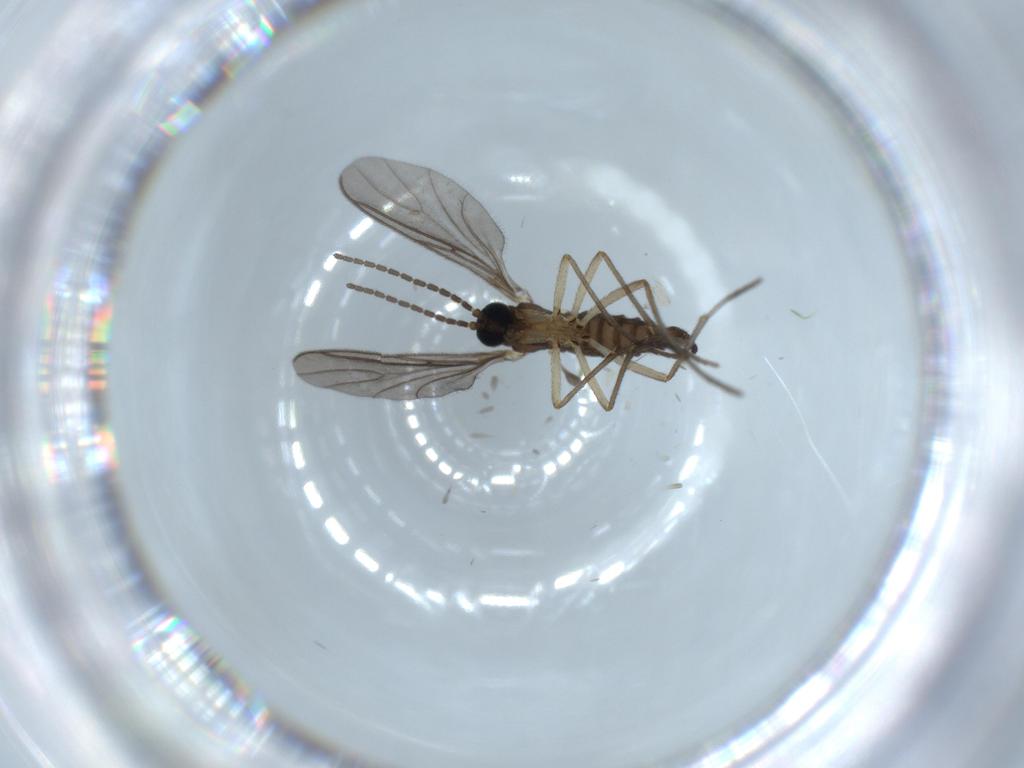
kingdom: Animalia
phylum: Arthropoda
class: Insecta
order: Diptera
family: Sciaridae
